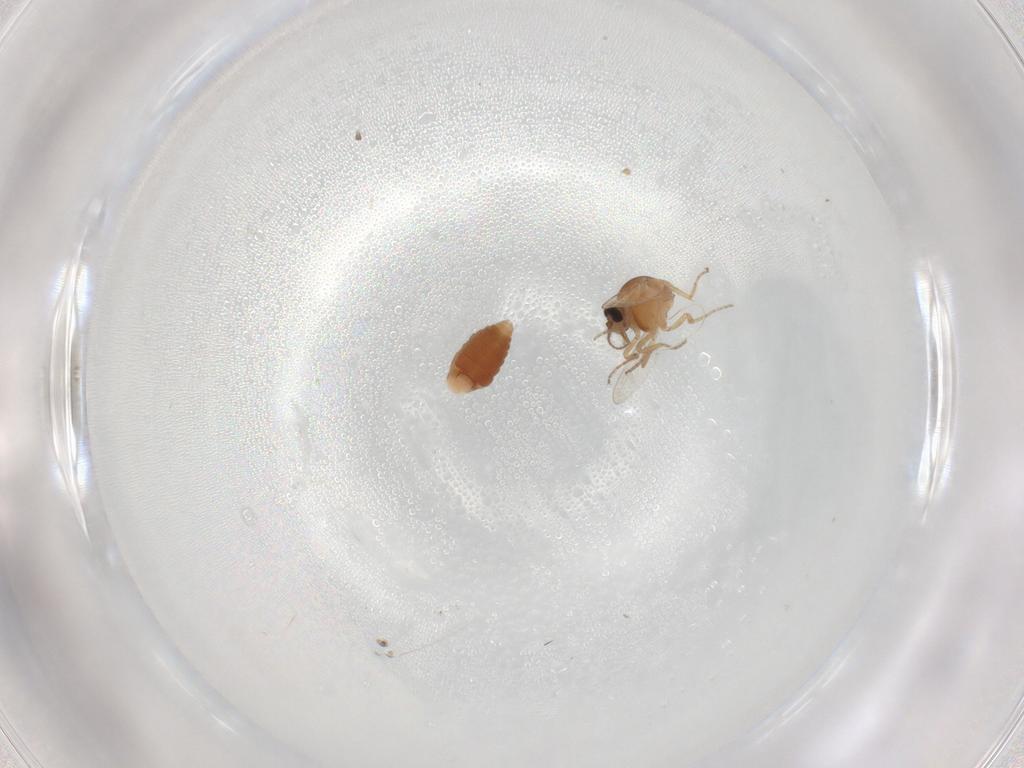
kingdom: Animalia
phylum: Arthropoda
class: Insecta
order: Diptera
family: Ceratopogonidae
